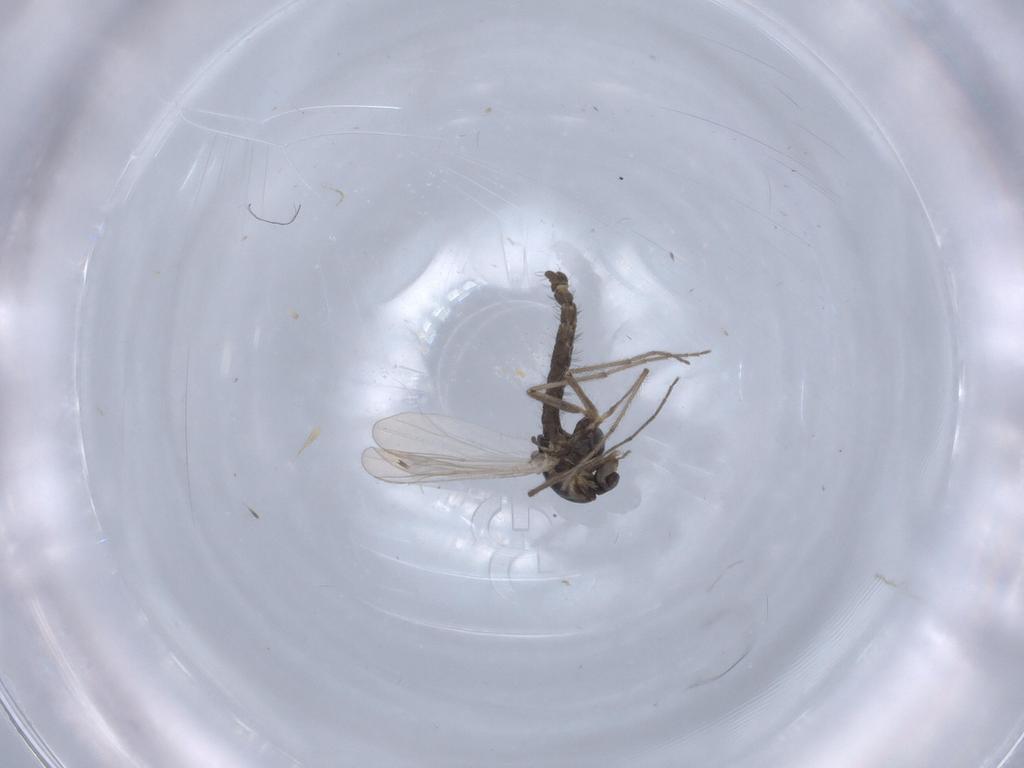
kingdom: Animalia
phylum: Arthropoda
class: Insecta
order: Diptera
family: Chironomidae
